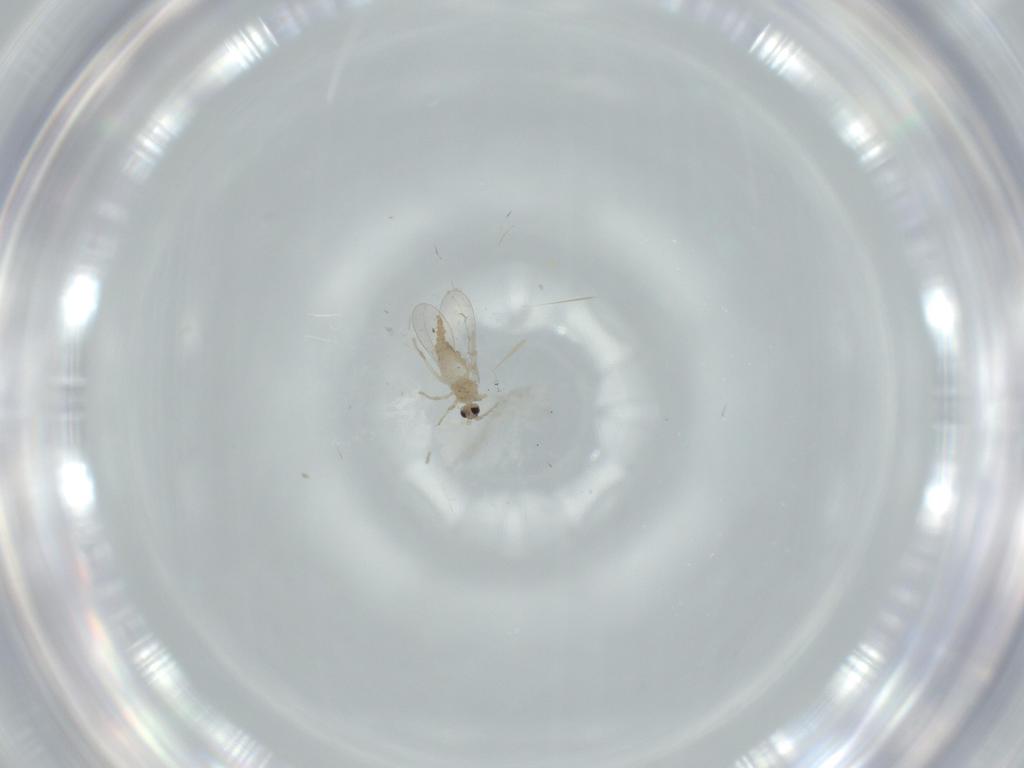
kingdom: Animalia
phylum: Arthropoda
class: Insecta
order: Diptera
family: Cecidomyiidae
